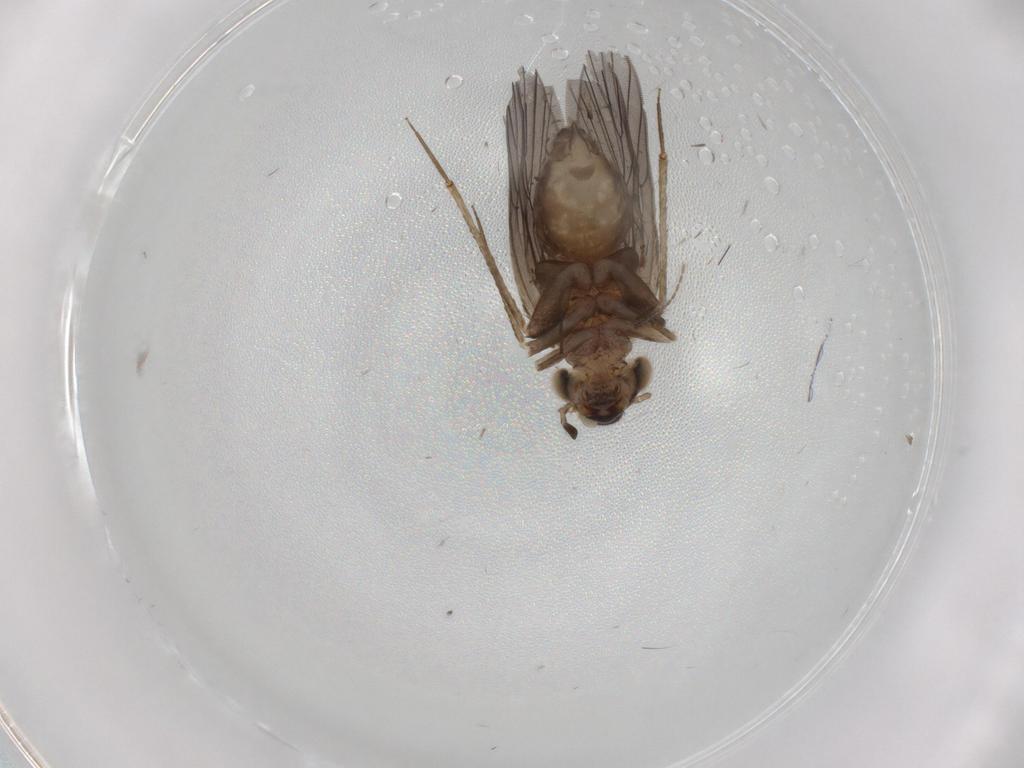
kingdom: Animalia
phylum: Arthropoda
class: Insecta
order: Psocodea
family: Lepidopsocidae
